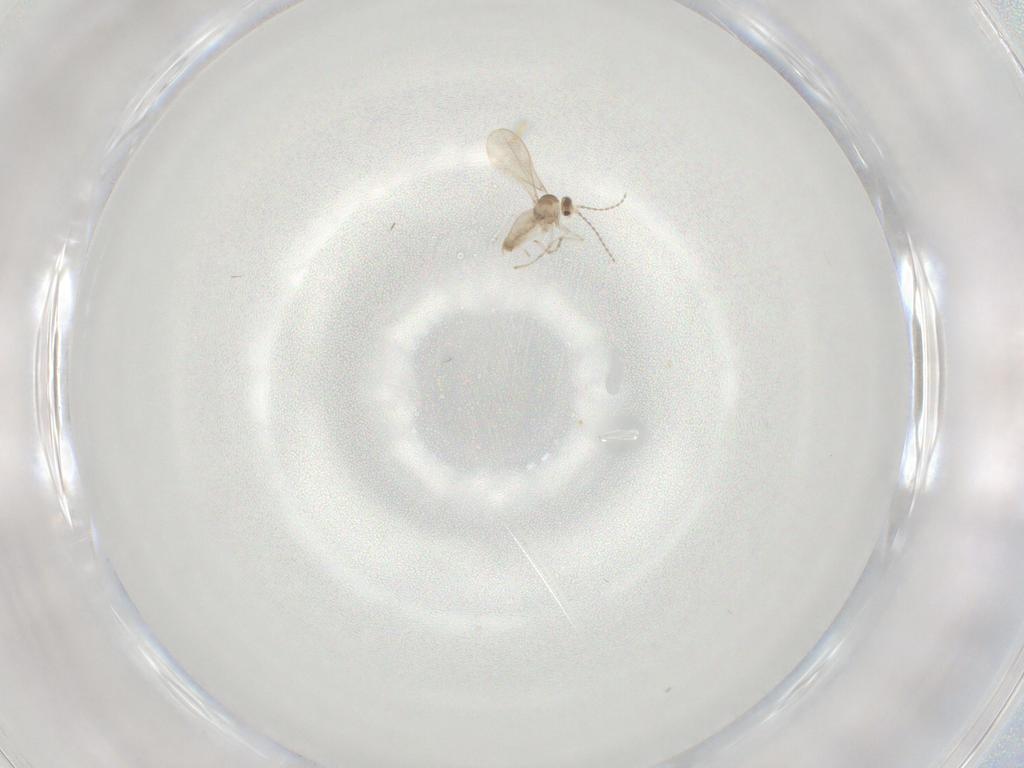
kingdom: Animalia
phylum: Arthropoda
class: Insecta
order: Diptera
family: Cecidomyiidae
